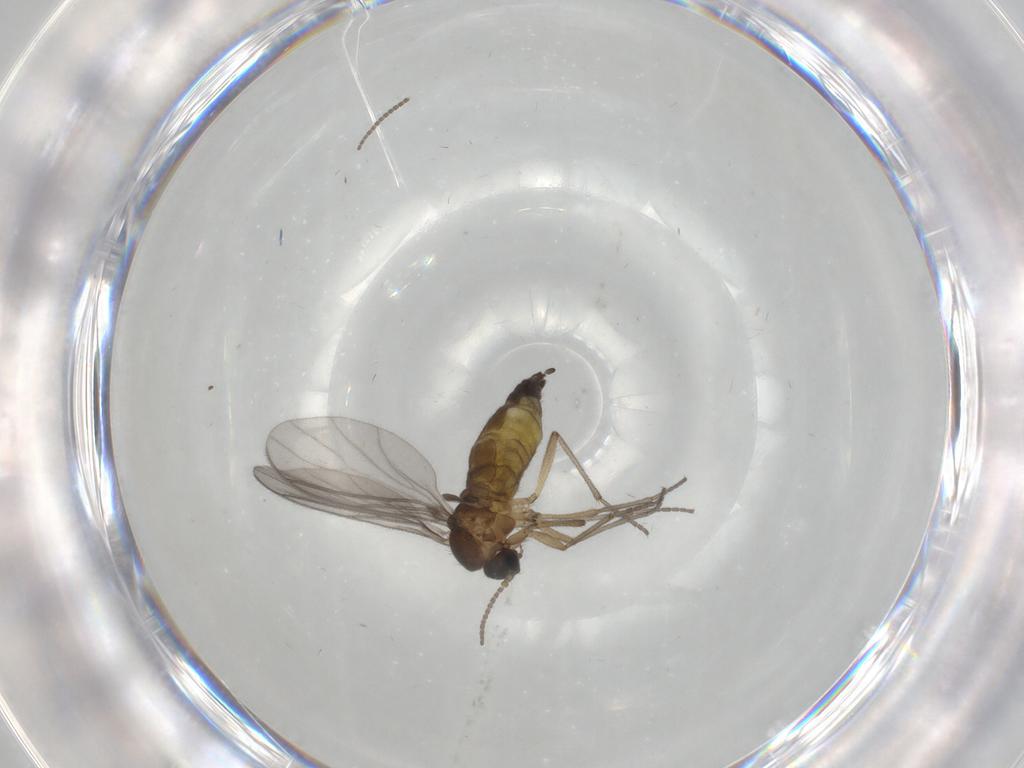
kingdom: Animalia
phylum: Arthropoda
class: Insecta
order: Diptera
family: Sciaridae
